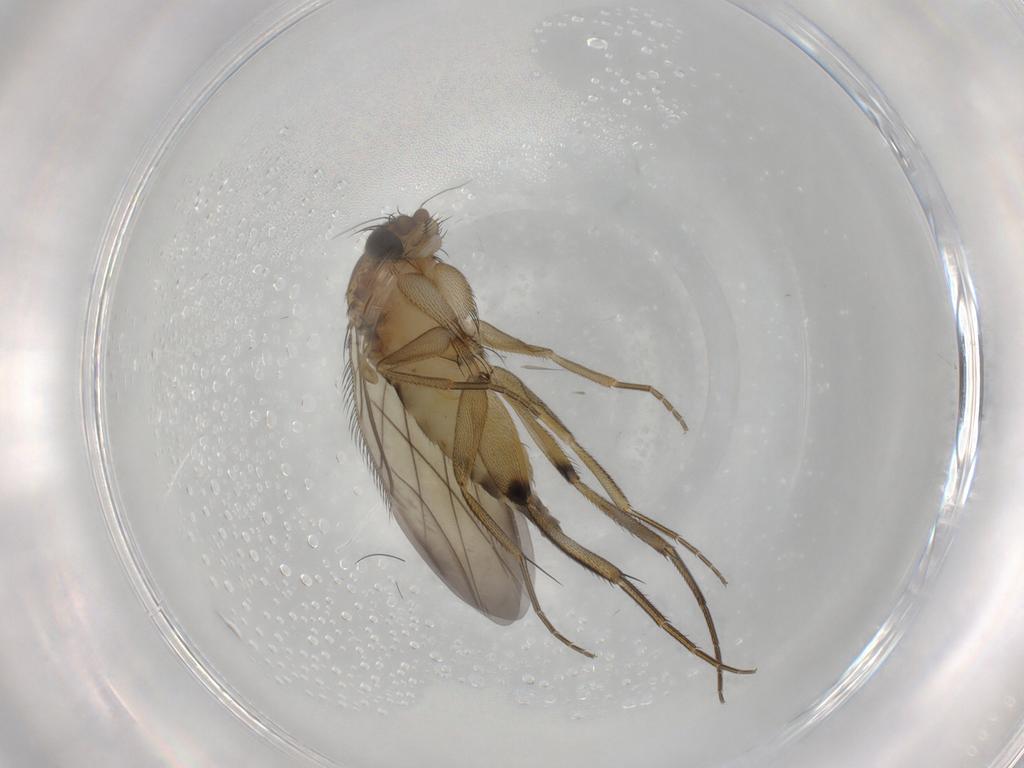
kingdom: Animalia
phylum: Arthropoda
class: Insecta
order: Diptera
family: Phoridae
